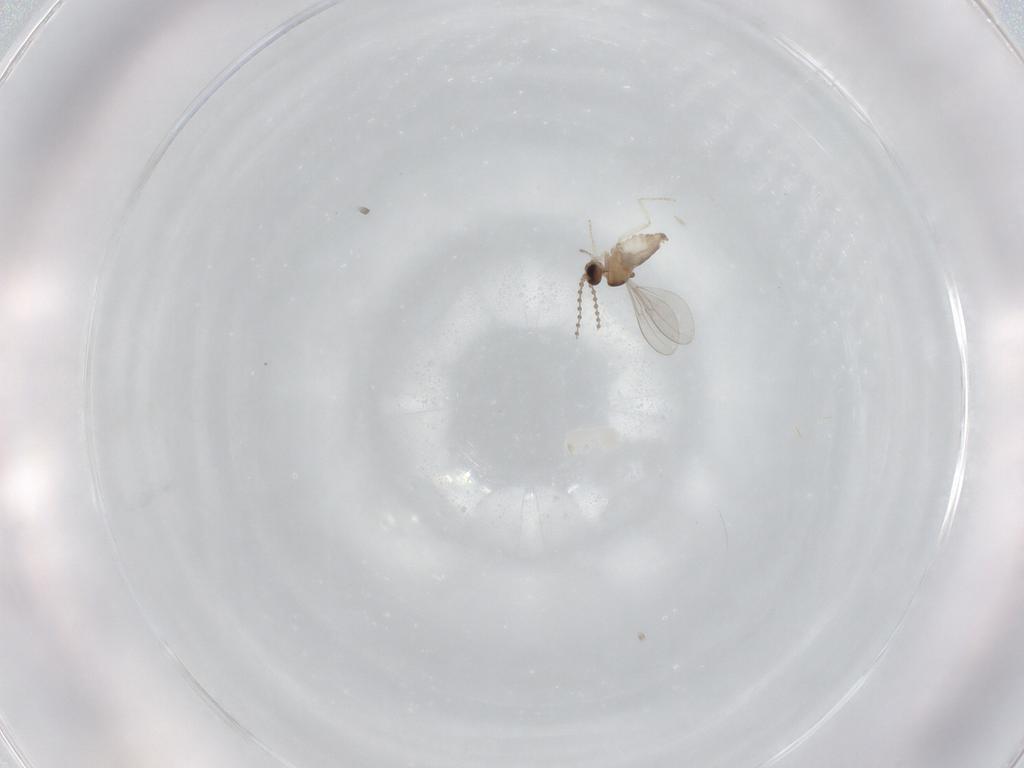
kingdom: Animalia
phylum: Arthropoda
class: Insecta
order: Diptera
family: Cecidomyiidae
